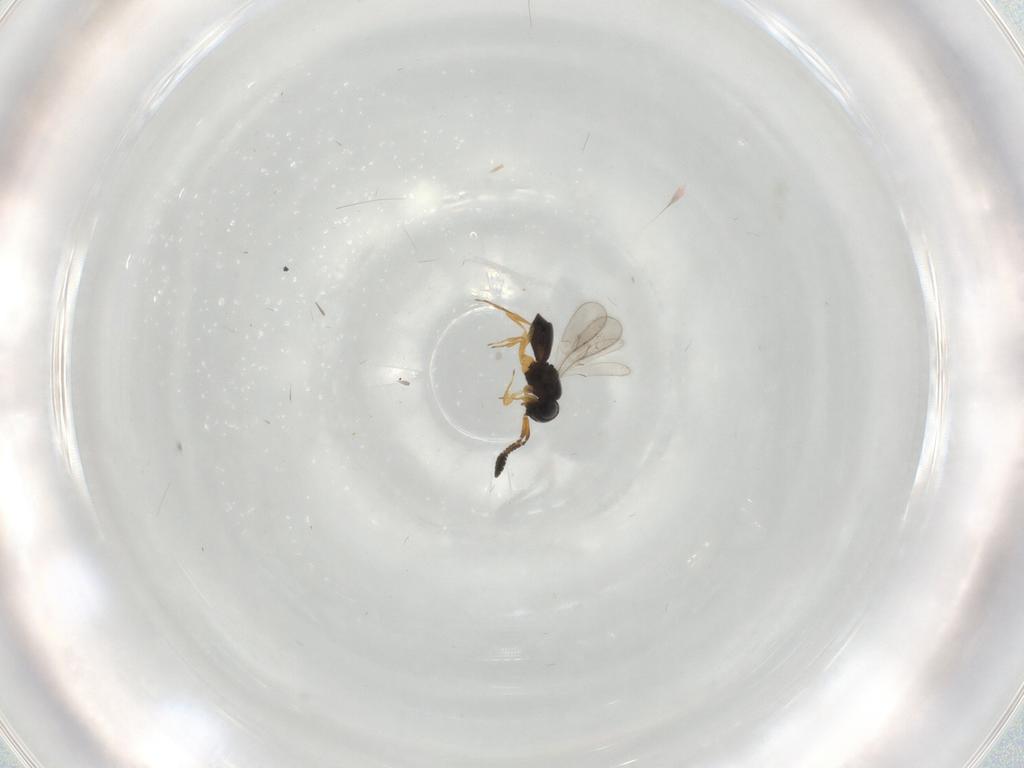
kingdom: Animalia
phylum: Arthropoda
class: Insecta
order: Hymenoptera
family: Scelionidae
